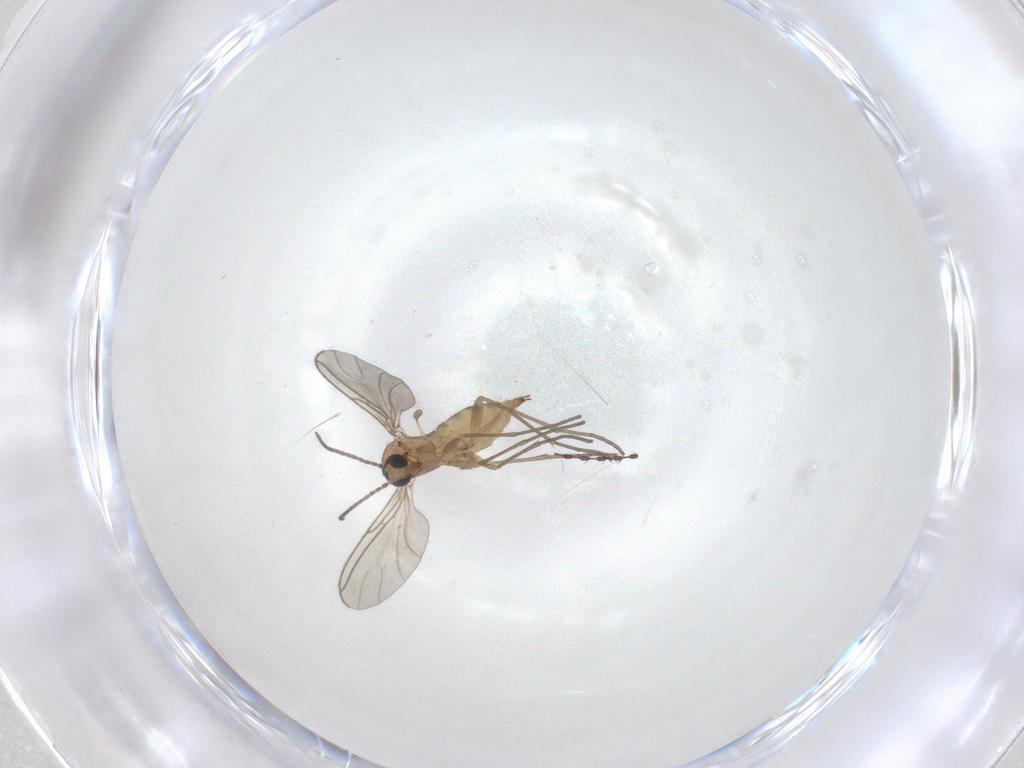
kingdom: Animalia
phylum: Arthropoda
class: Insecta
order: Diptera
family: Sciaridae
